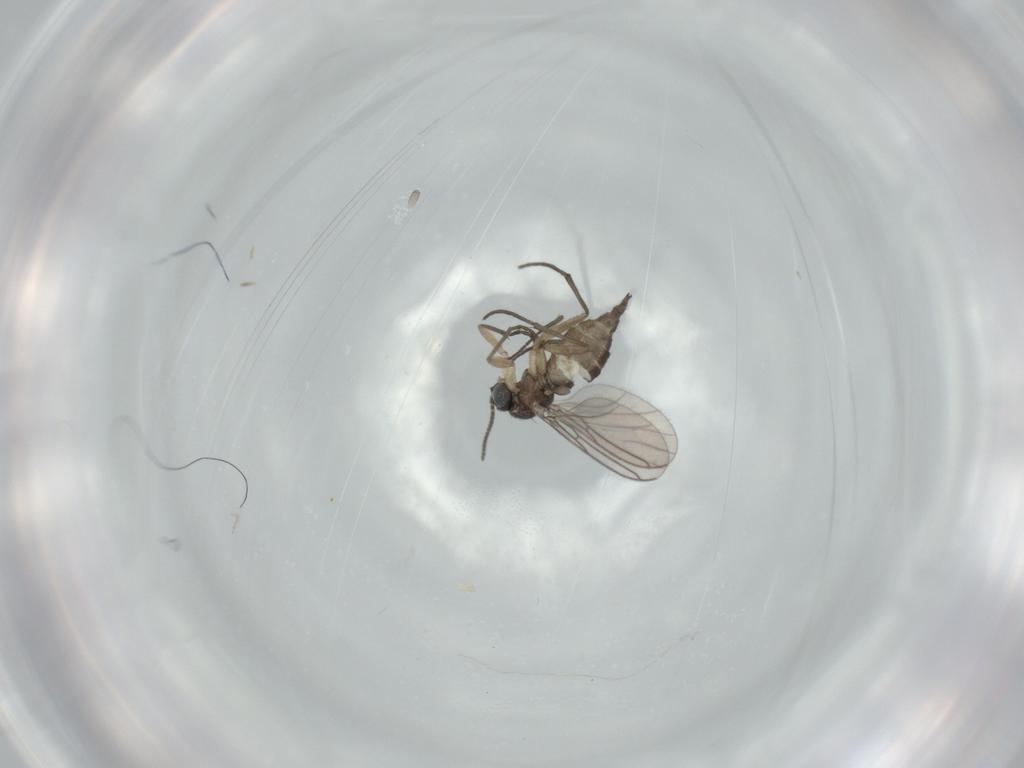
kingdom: Animalia
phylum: Arthropoda
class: Insecta
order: Diptera
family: Sciaridae
